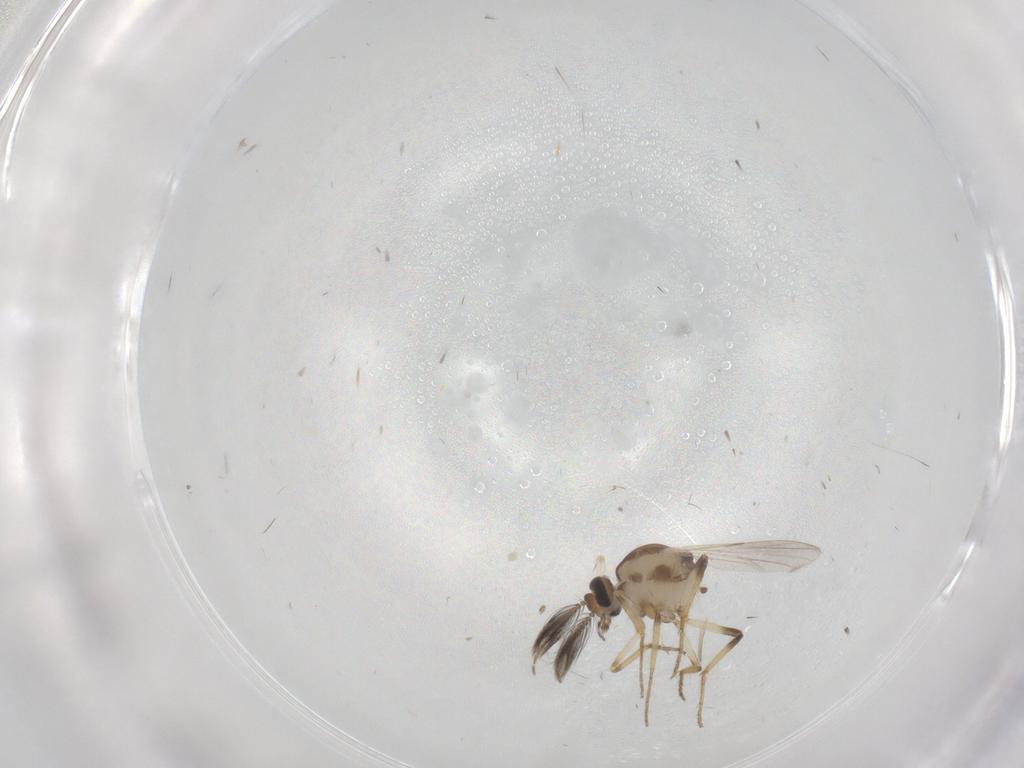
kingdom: Animalia
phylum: Arthropoda
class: Insecta
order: Diptera
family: Ceratopogonidae
